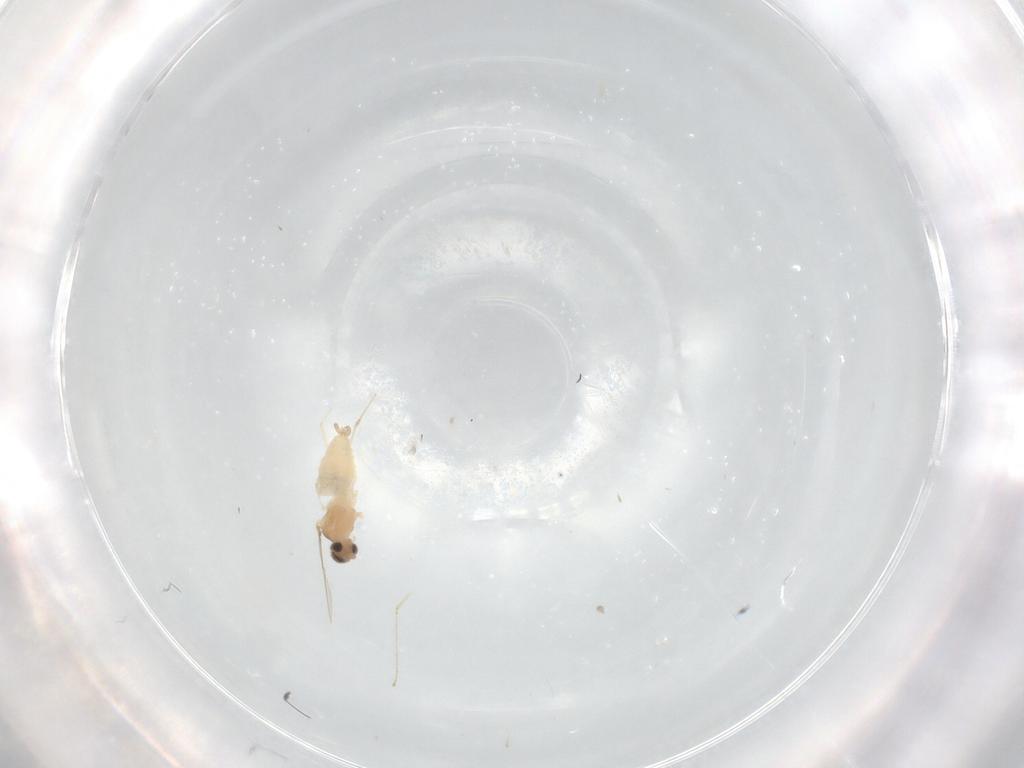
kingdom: Animalia
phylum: Arthropoda
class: Insecta
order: Diptera
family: Cecidomyiidae
